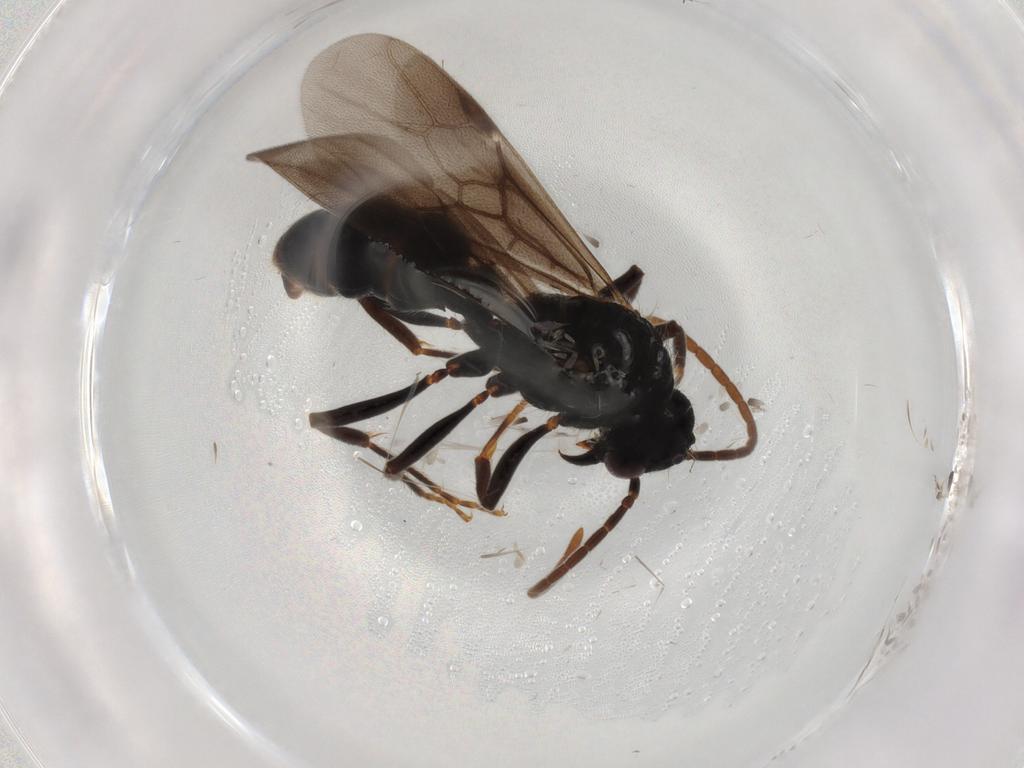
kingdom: Animalia
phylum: Arthropoda
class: Insecta
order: Hymenoptera
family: Formicidae
